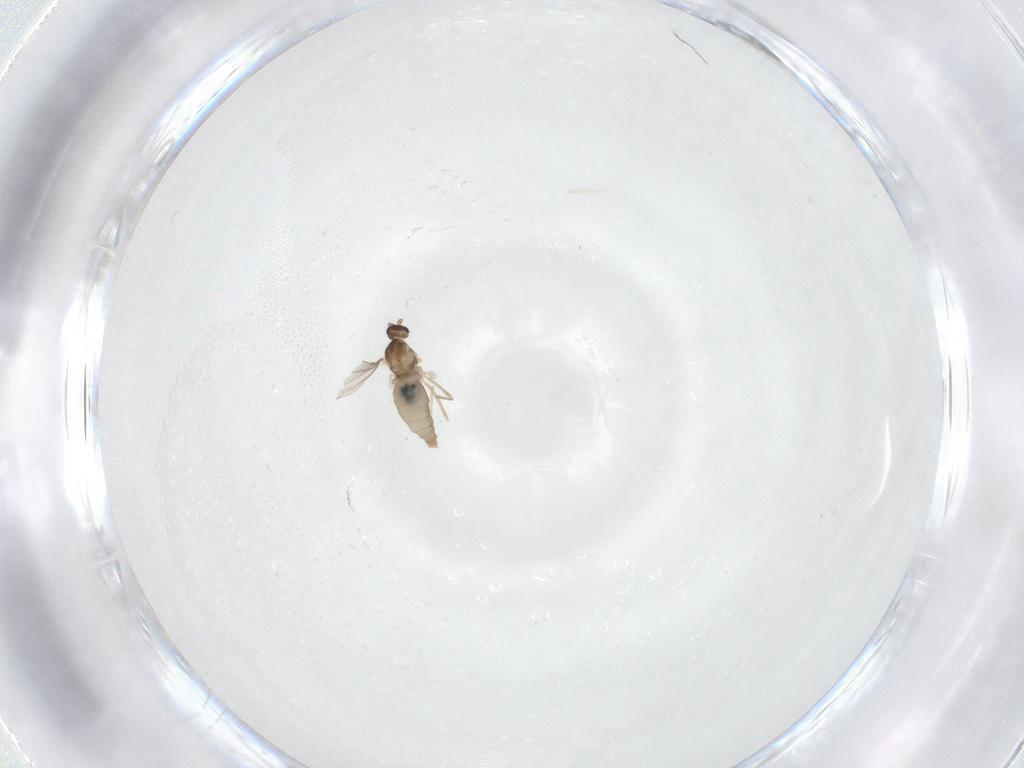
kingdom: Animalia
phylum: Arthropoda
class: Insecta
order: Diptera
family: Cecidomyiidae
